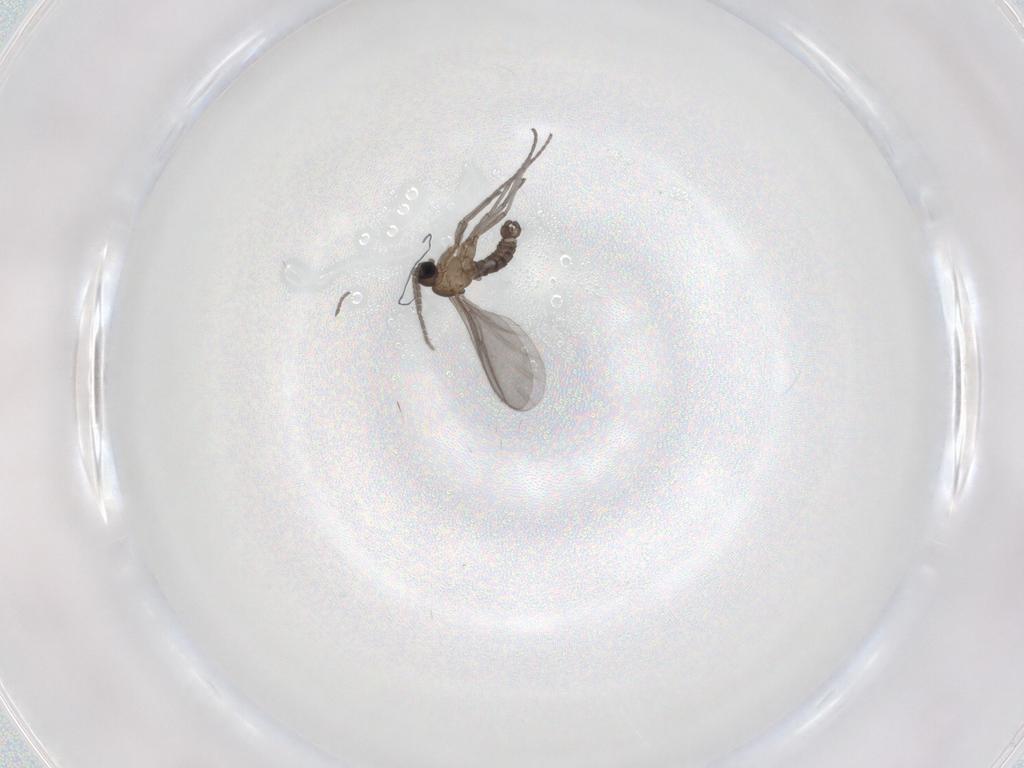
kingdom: Animalia
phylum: Arthropoda
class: Insecta
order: Diptera
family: Sciaridae
